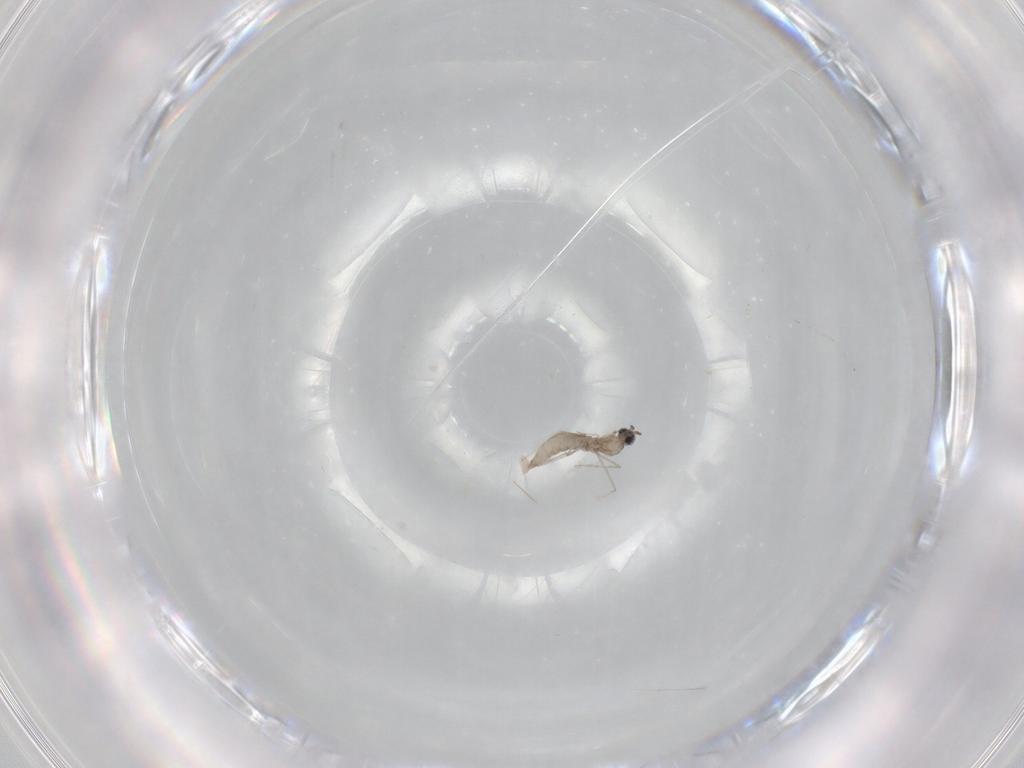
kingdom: Animalia
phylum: Arthropoda
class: Insecta
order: Diptera
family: Cecidomyiidae
